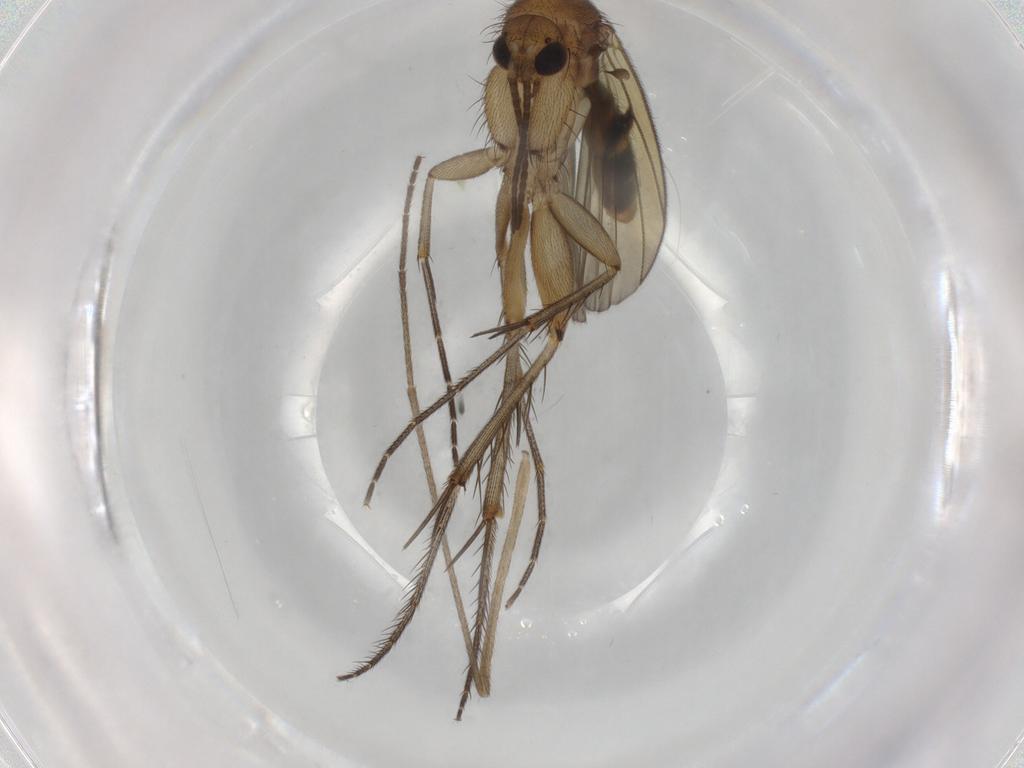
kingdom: Animalia
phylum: Arthropoda
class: Insecta
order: Diptera
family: Mycetophilidae
